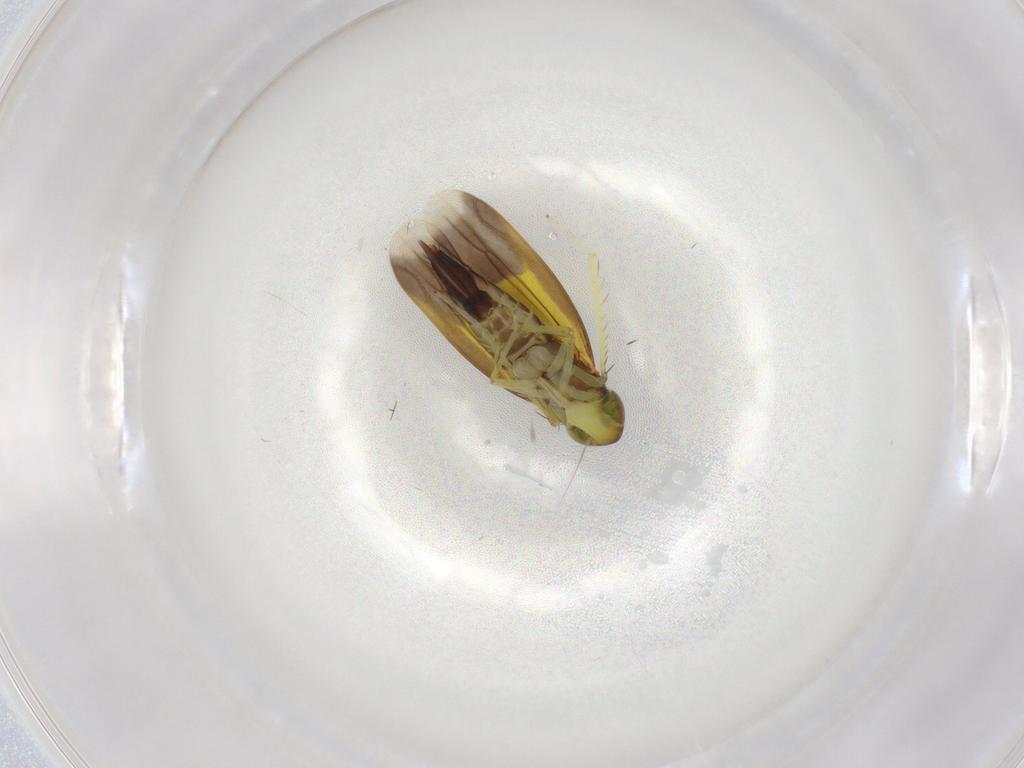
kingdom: Animalia
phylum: Arthropoda
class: Insecta
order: Hemiptera
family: Cicadellidae
